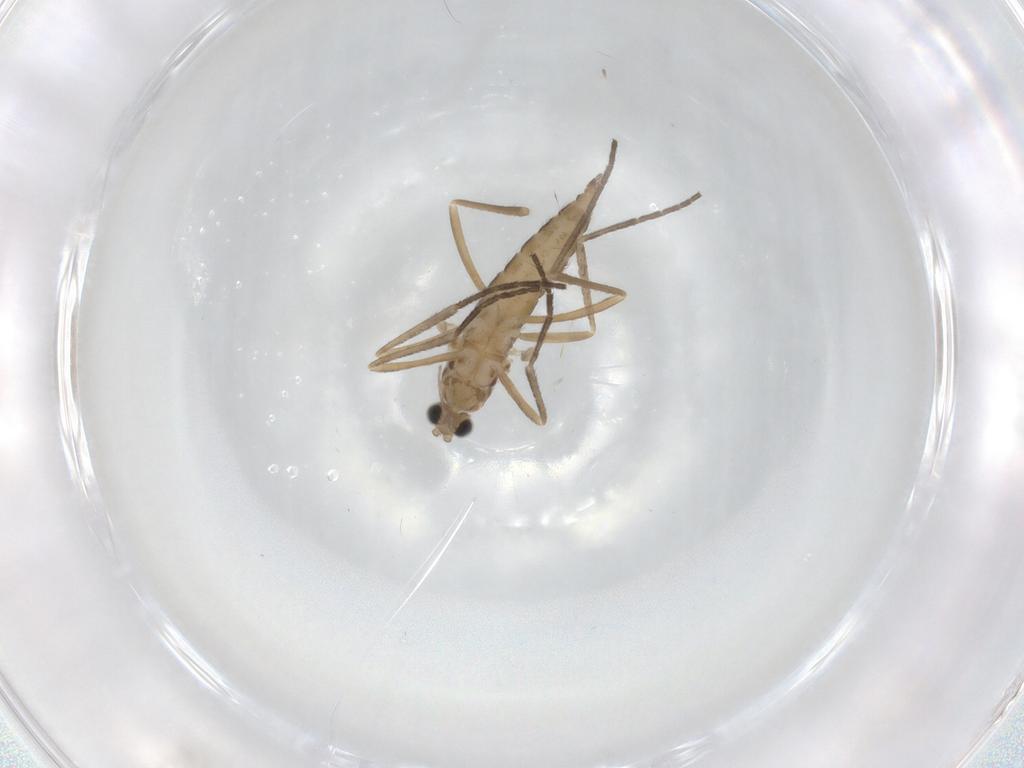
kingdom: Animalia
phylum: Arthropoda
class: Insecta
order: Diptera
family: Cecidomyiidae
